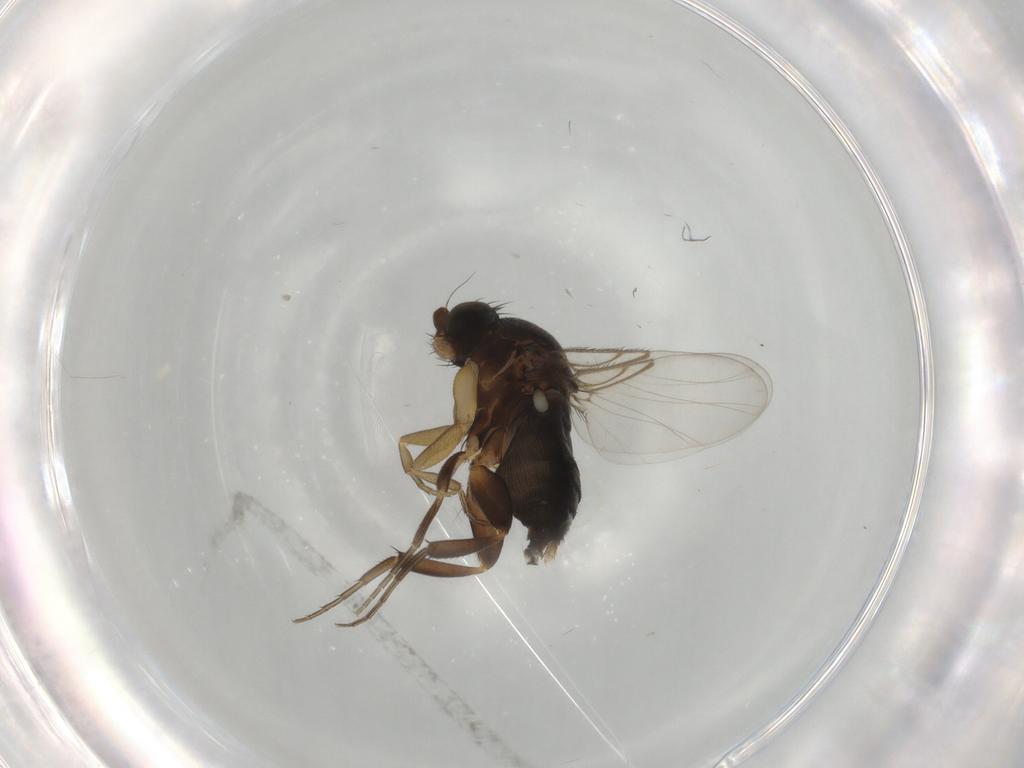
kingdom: Animalia
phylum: Arthropoda
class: Insecta
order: Diptera
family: Phoridae
